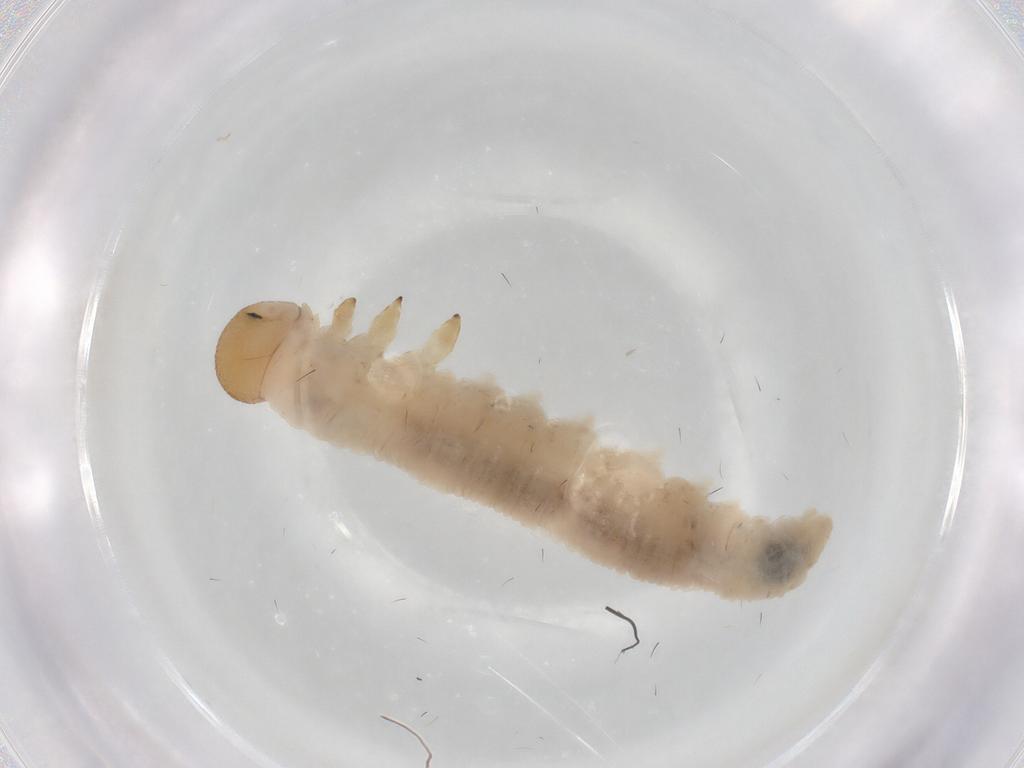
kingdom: Animalia
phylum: Arthropoda
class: Insecta
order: Hymenoptera
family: Tenthredinidae
